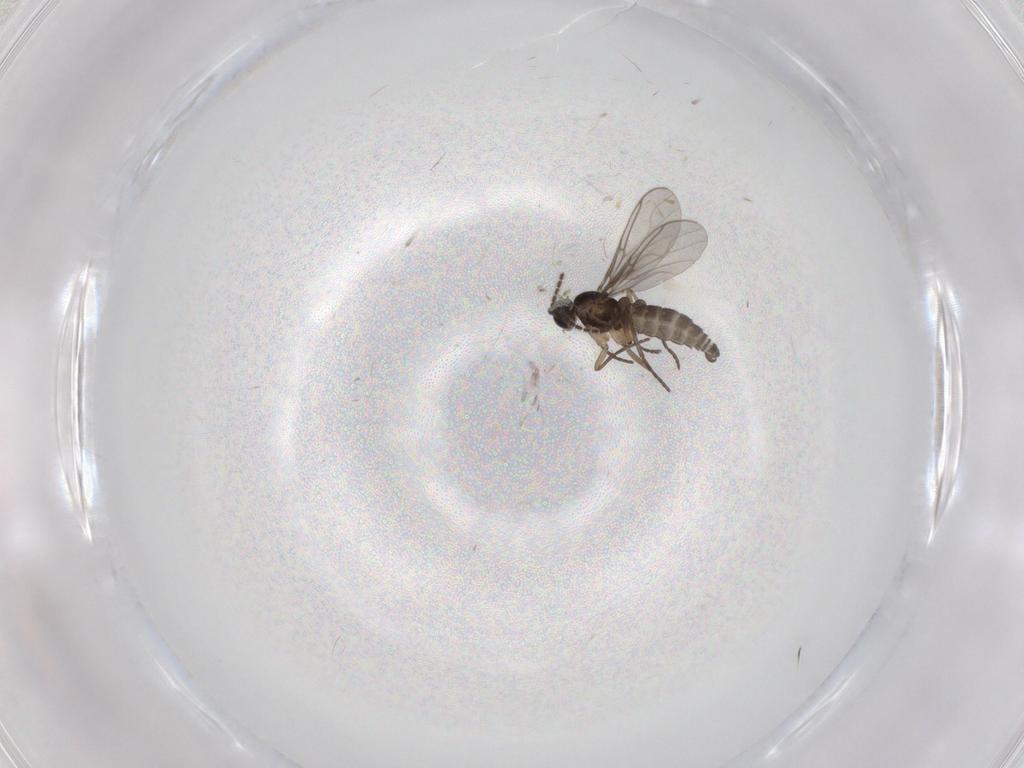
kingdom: Animalia
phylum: Arthropoda
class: Insecta
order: Diptera
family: Sciaridae
